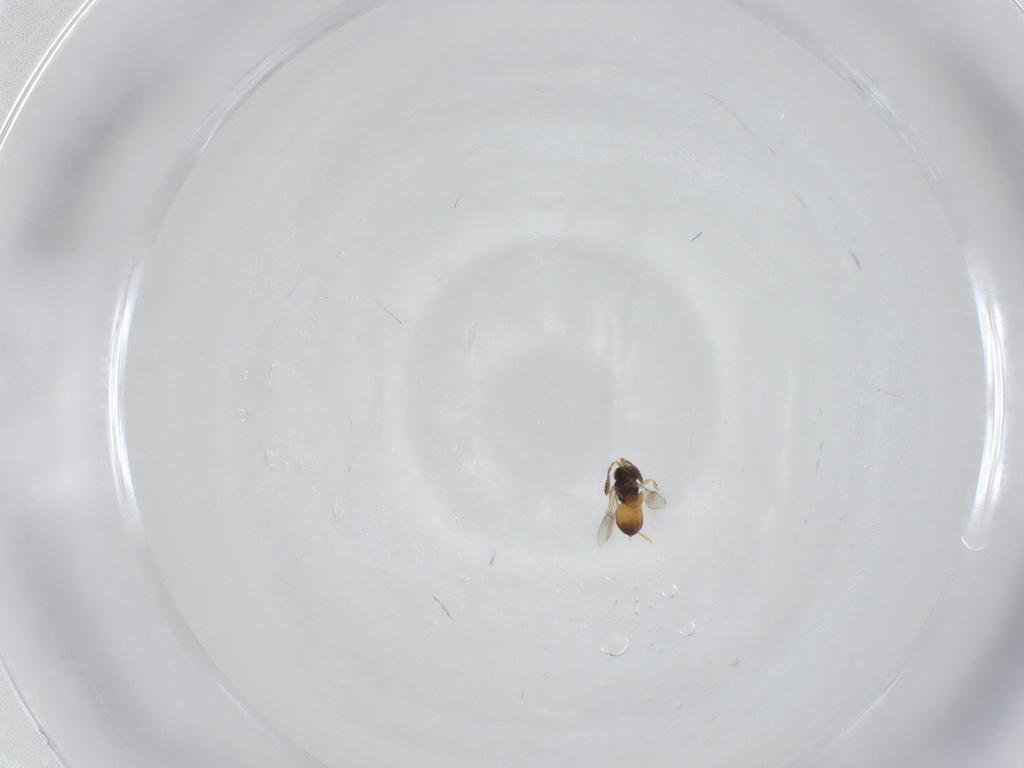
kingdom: Animalia
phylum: Arthropoda
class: Insecta
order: Hymenoptera
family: Scelionidae
